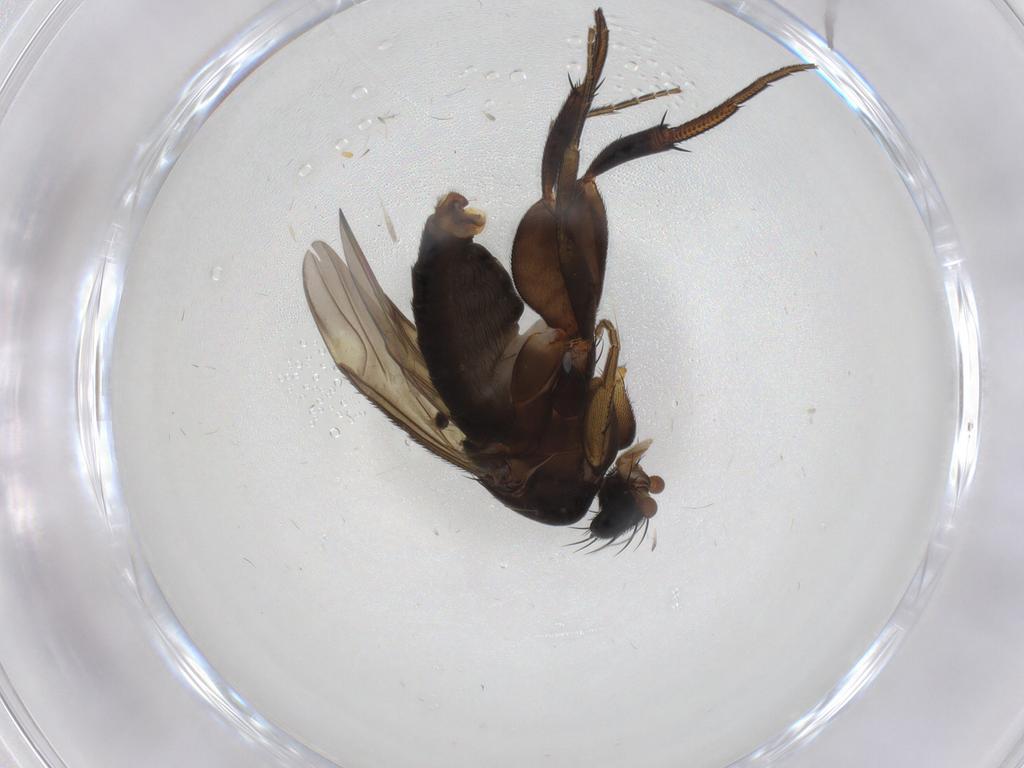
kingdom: Animalia
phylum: Arthropoda
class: Insecta
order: Diptera
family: Phoridae
